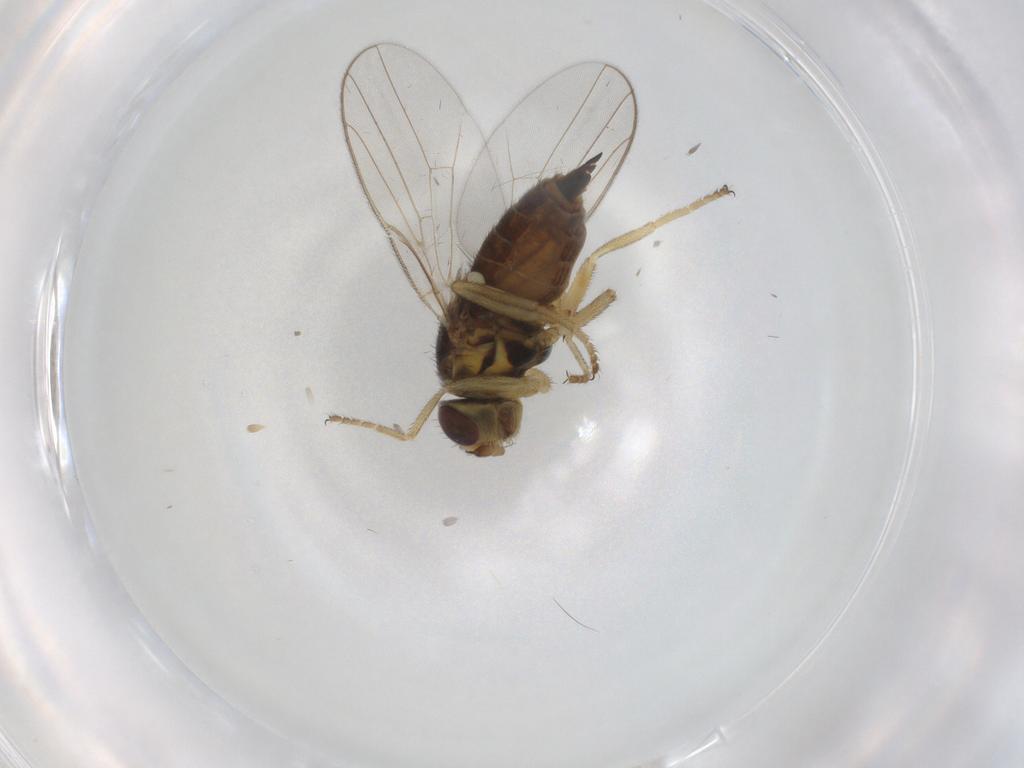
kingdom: Animalia
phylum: Arthropoda
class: Insecta
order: Diptera
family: Chloropidae
